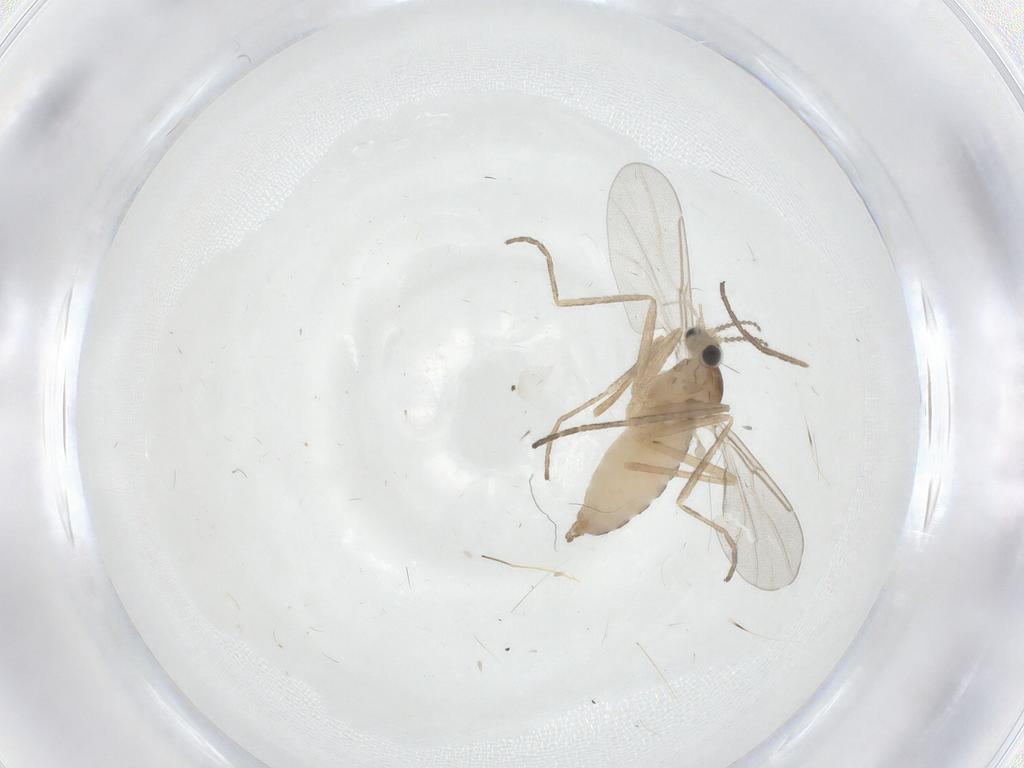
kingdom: Animalia
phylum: Arthropoda
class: Insecta
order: Diptera
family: Cecidomyiidae
